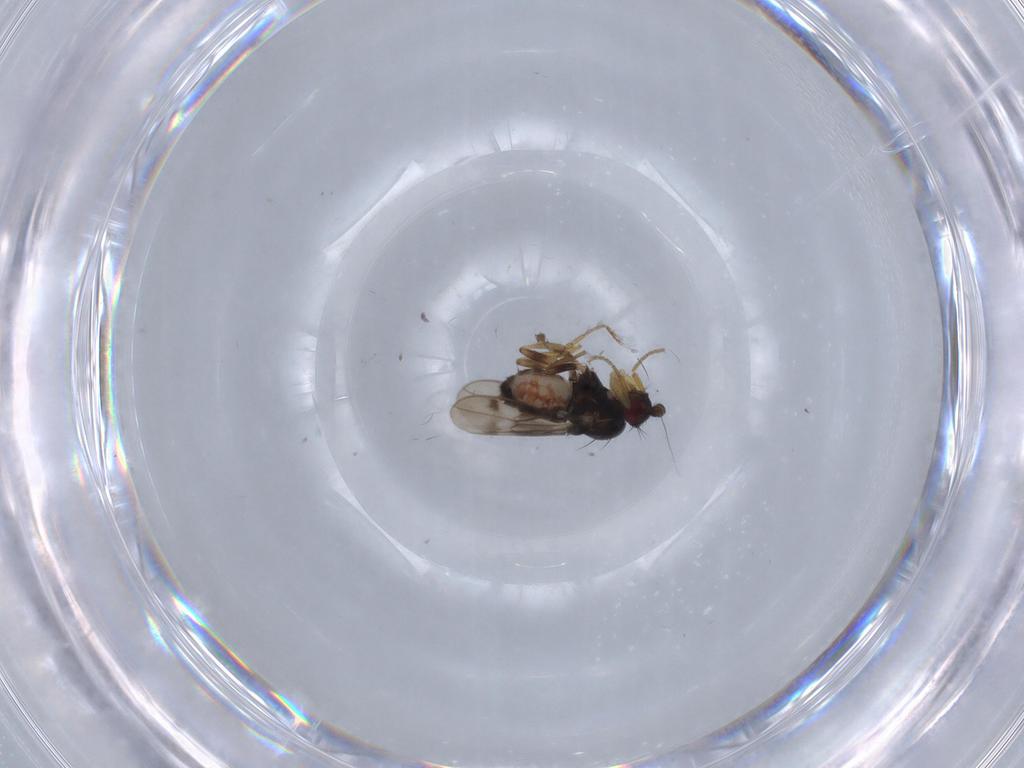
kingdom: Animalia
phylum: Arthropoda
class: Insecta
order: Diptera
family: Sphaeroceridae
